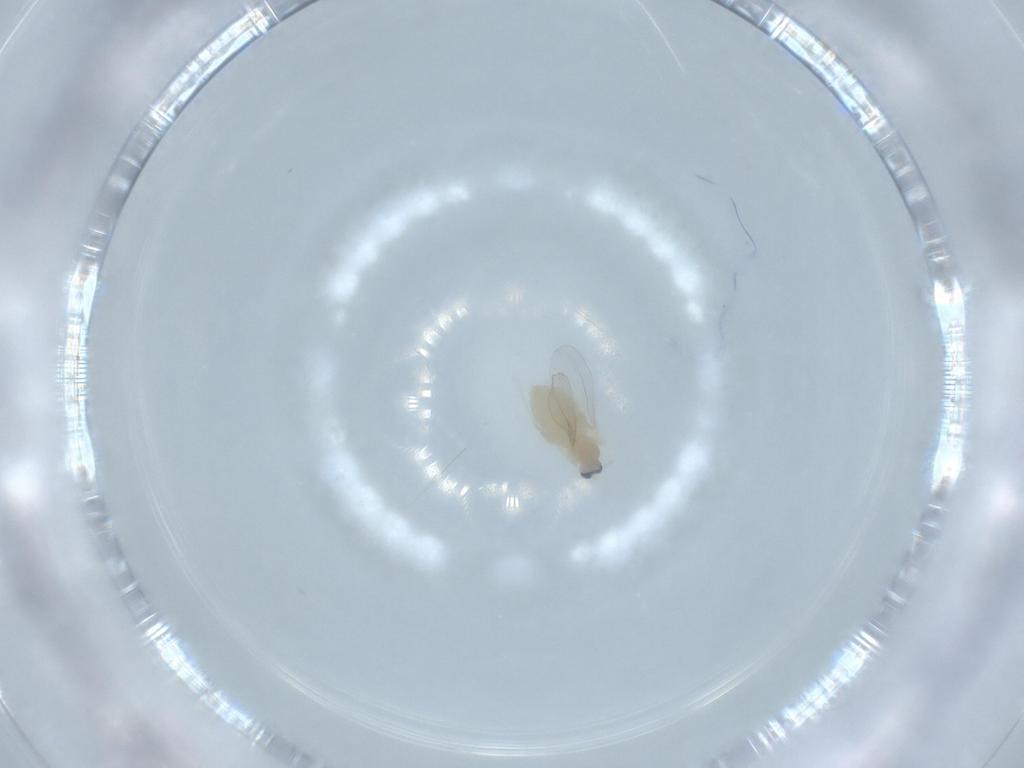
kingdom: Animalia
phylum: Arthropoda
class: Insecta
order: Diptera
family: Cecidomyiidae
